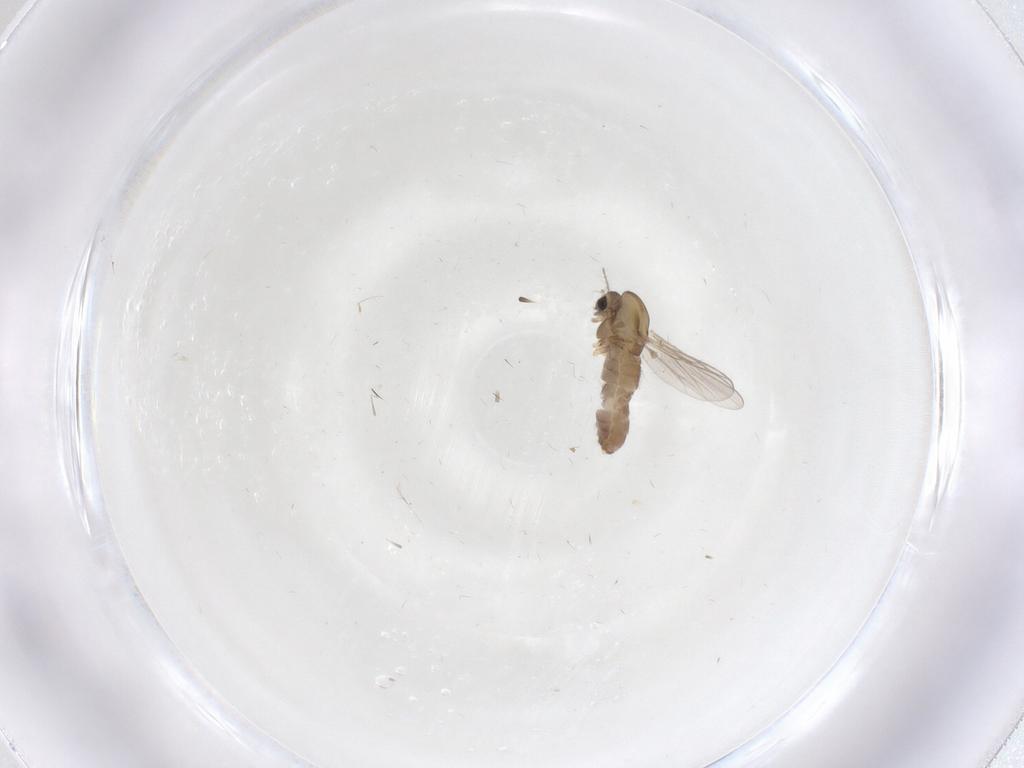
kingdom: Animalia
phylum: Arthropoda
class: Insecta
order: Diptera
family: Chironomidae
